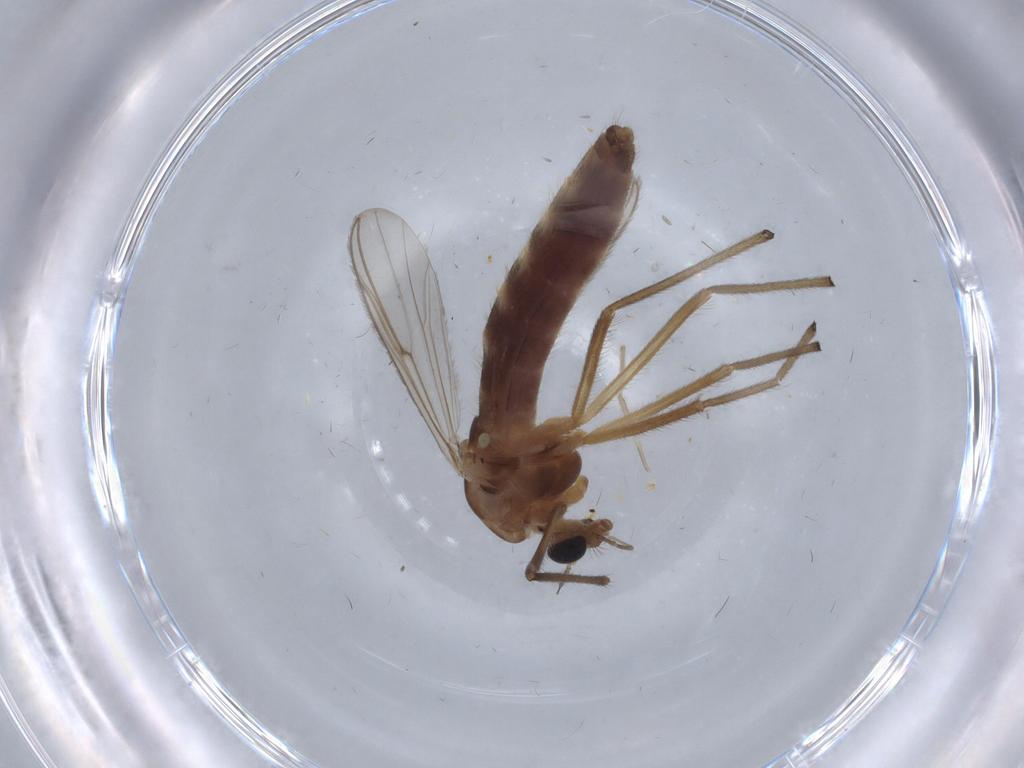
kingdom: Animalia
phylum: Arthropoda
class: Insecta
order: Diptera
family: Chironomidae
